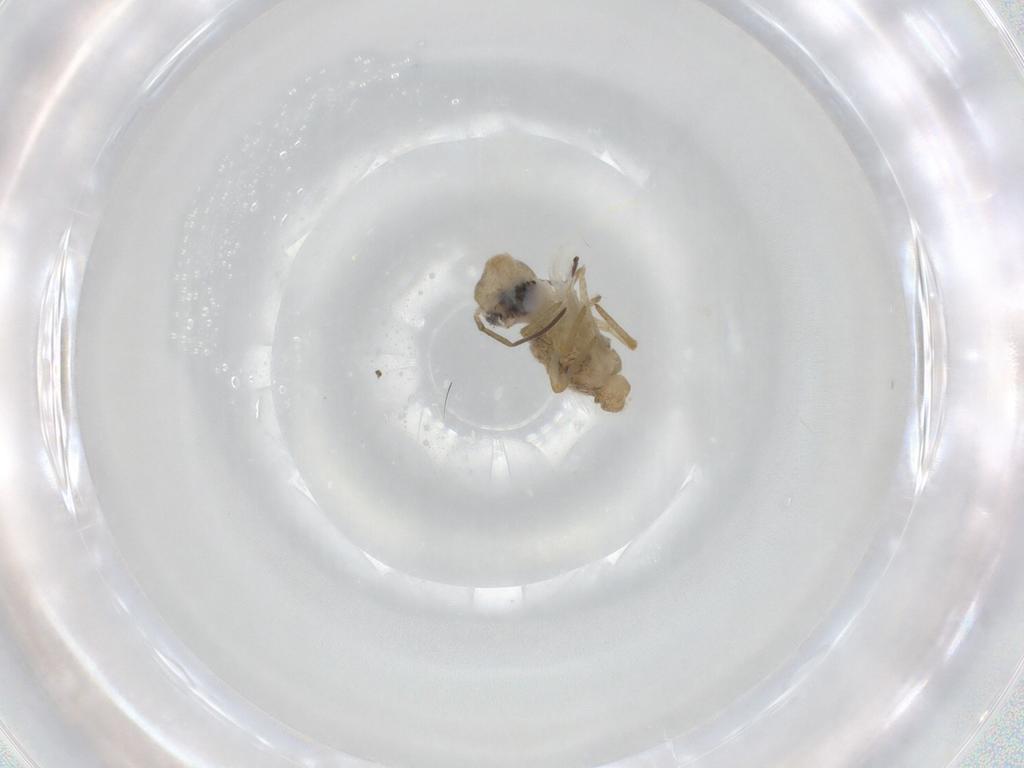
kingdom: Animalia
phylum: Arthropoda
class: Collembola
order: Symphypleona
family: Sminthuridae
